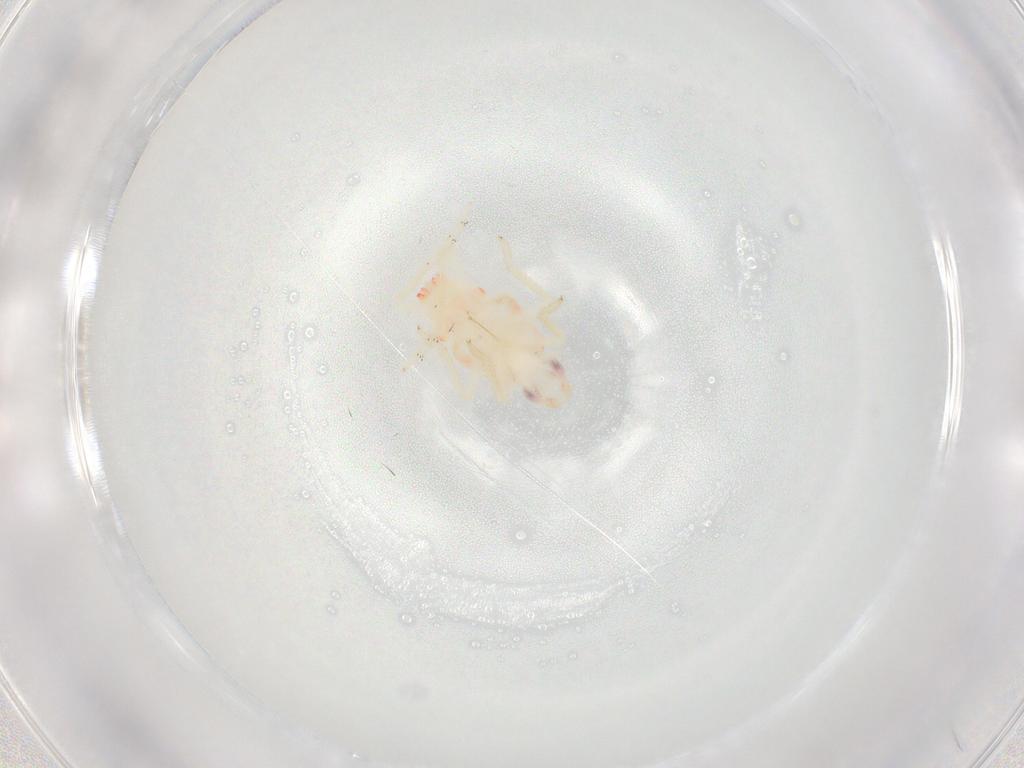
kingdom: Animalia
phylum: Arthropoda
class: Insecta
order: Hemiptera
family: Tropiduchidae
